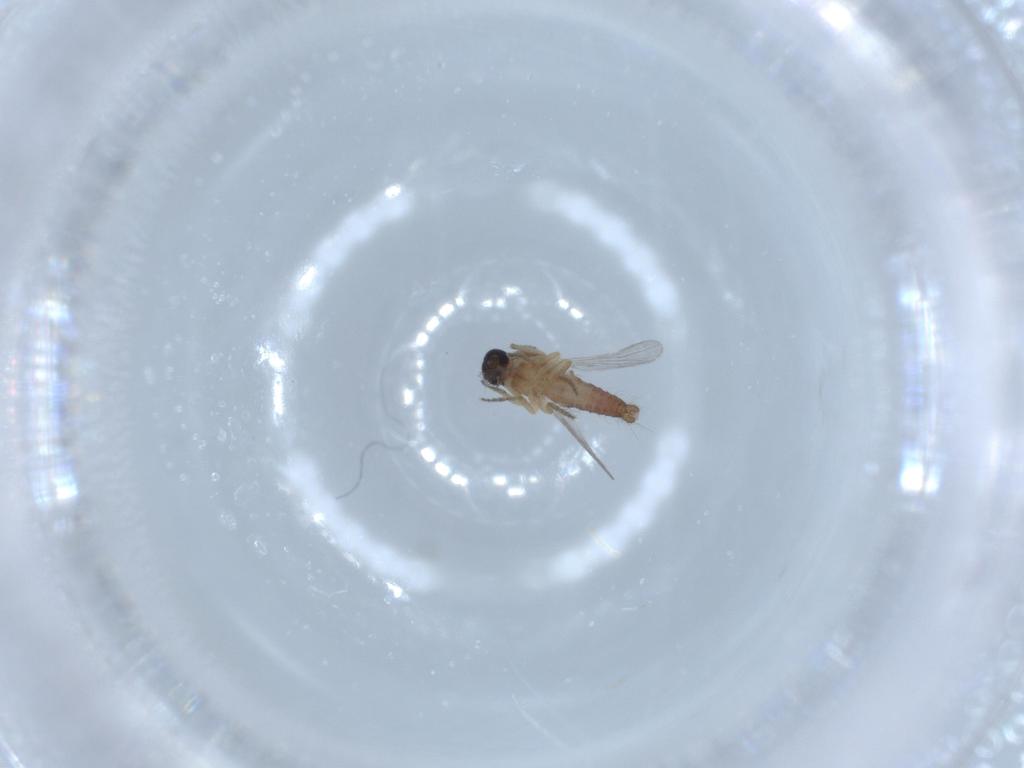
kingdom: Animalia
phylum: Arthropoda
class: Insecta
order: Diptera
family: Ceratopogonidae
